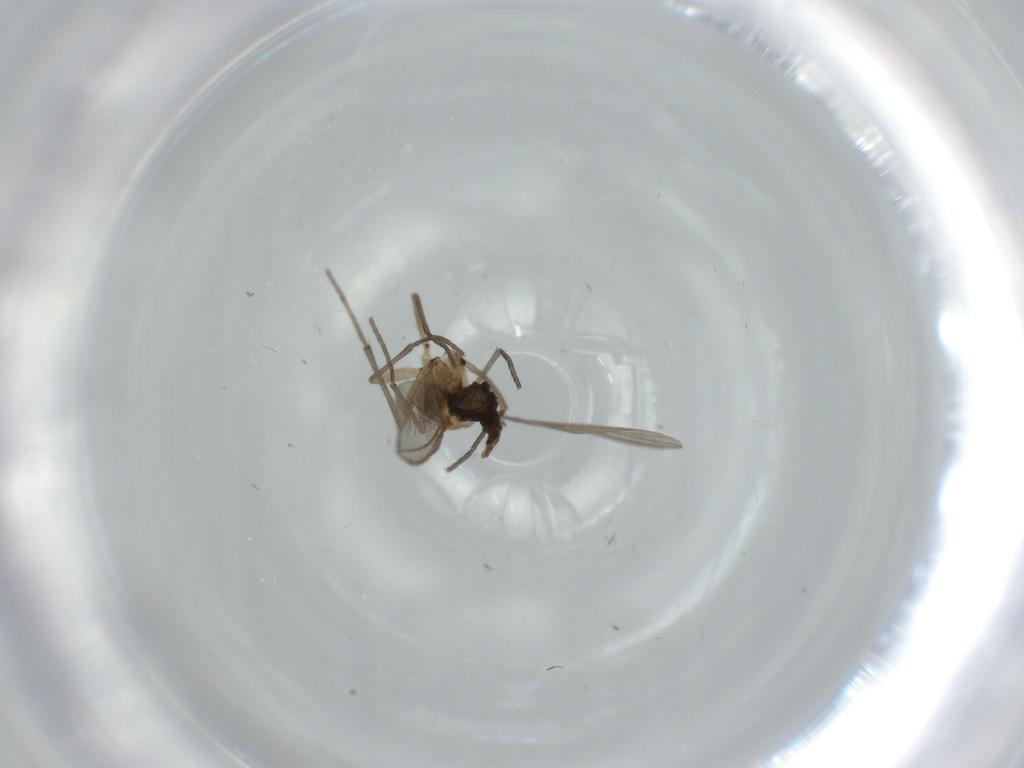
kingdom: Animalia
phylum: Arthropoda
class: Insecta
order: Diptera
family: Sciaridae
